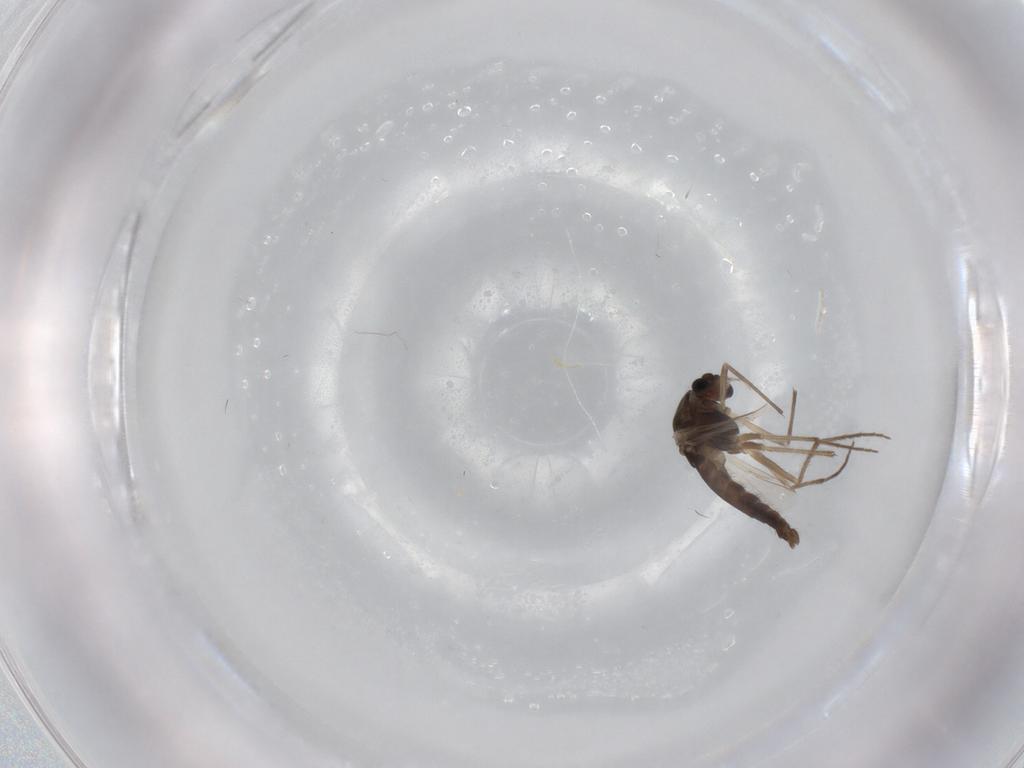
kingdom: Animalia
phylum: Arthropoda
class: Insecta
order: Diptera
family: Chironomidae
